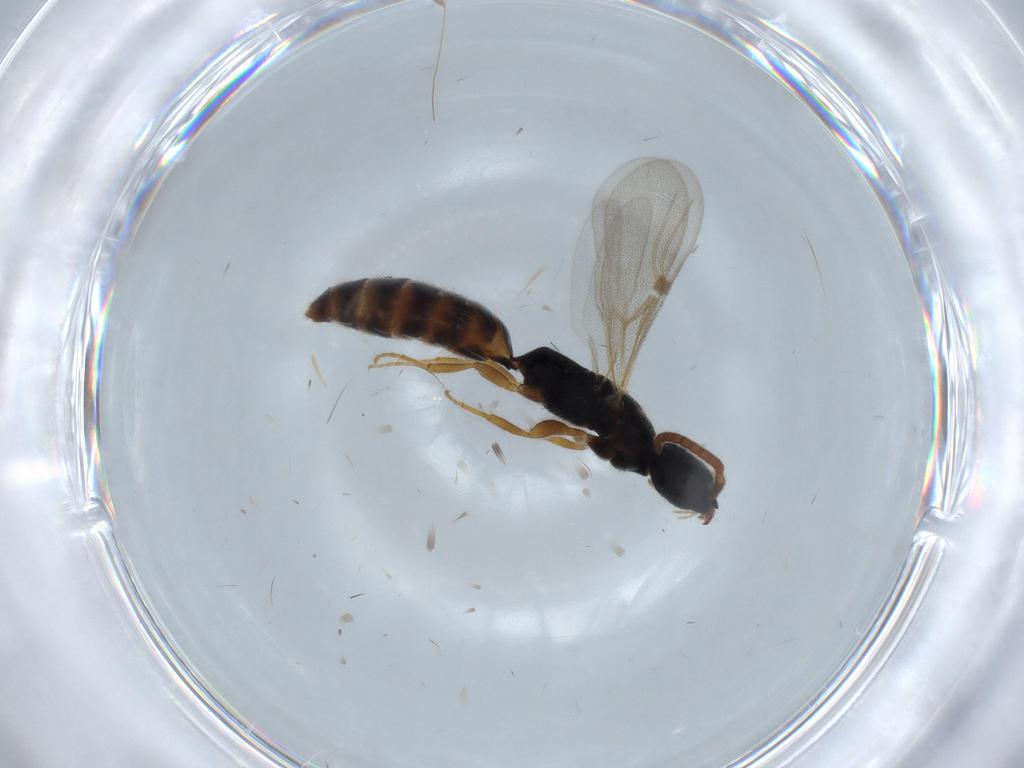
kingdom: Animalia
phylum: Arthropoda
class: Insecta
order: Hymenoptera
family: Bethylidae
